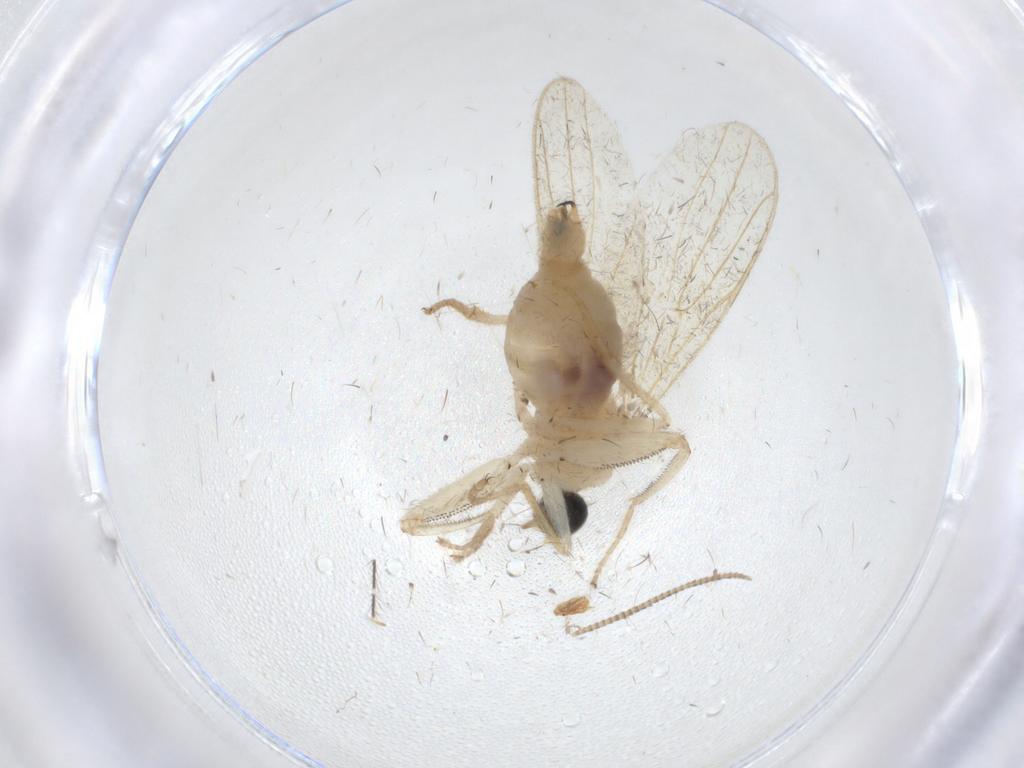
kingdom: Animalia
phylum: Arthropoda
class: Insecta
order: Diptera
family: Hybotidae
